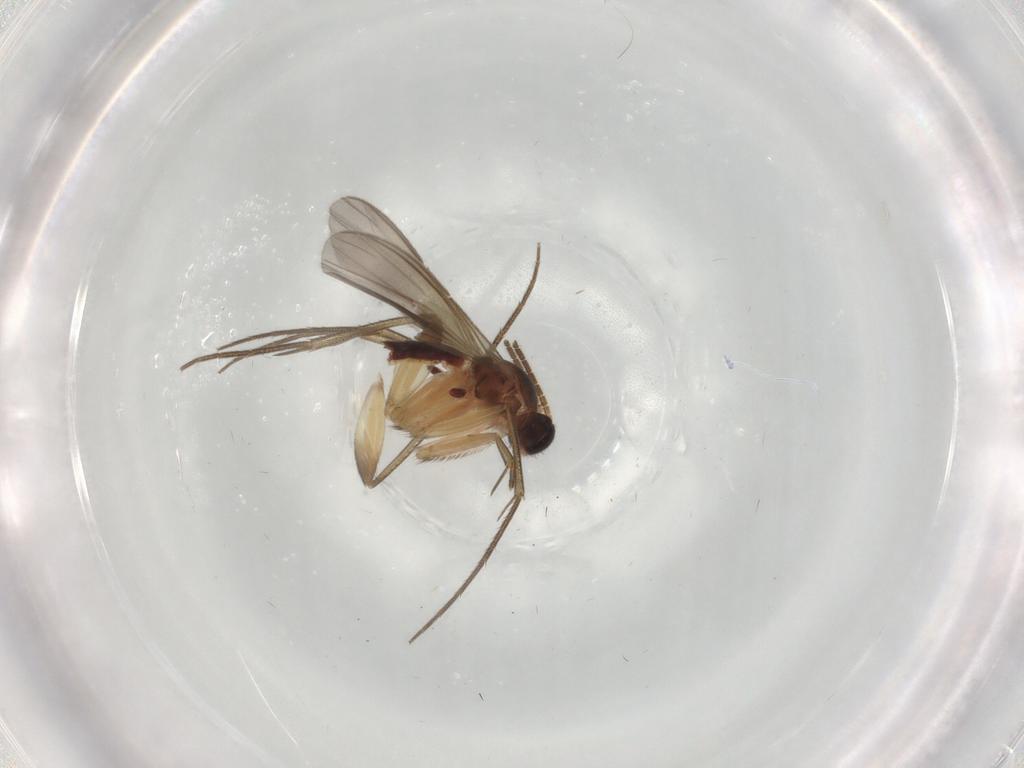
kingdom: Animalia
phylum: Arthropoda
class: Insecta
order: Diptera
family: Mycetophilidae
